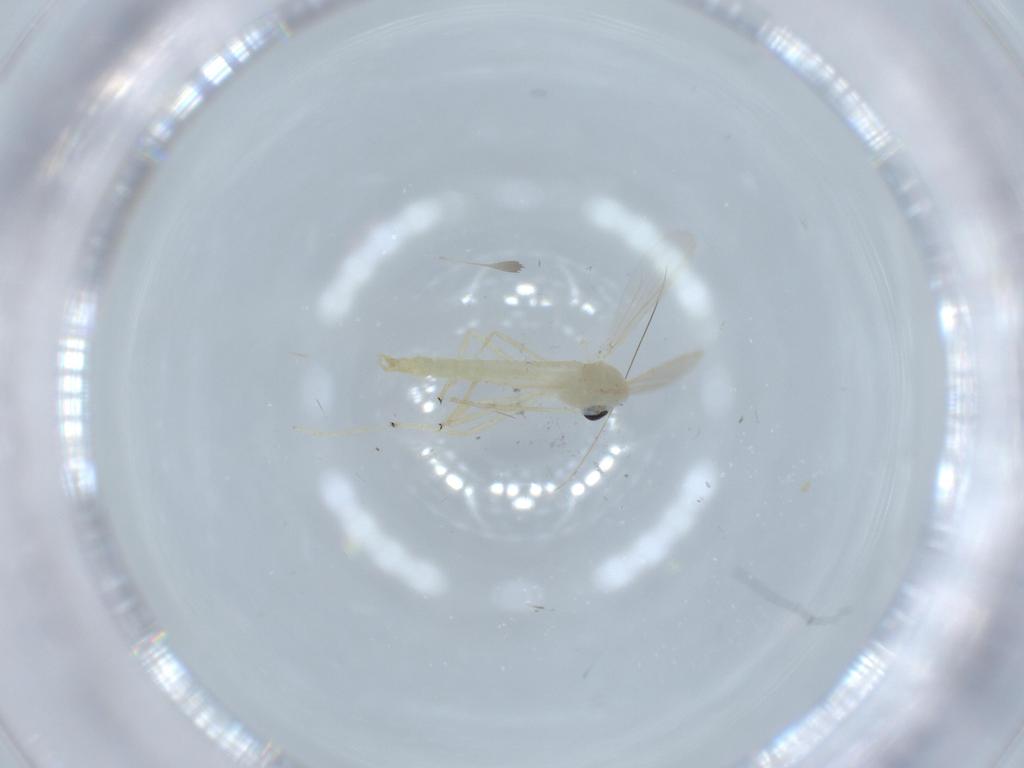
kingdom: Animalia
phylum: Arthropoda
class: Insecta
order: Diptera
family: Chironomidae
